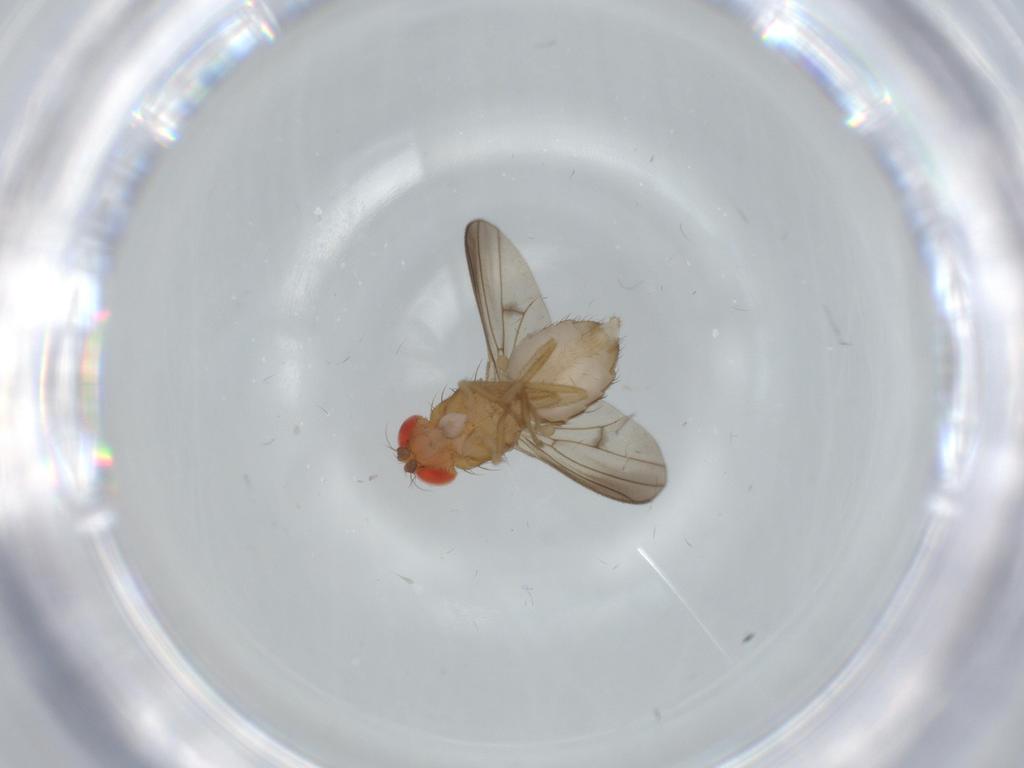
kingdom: Animalia
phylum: Arthropoda
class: Insecta
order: Diptera
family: Drosophilidae
